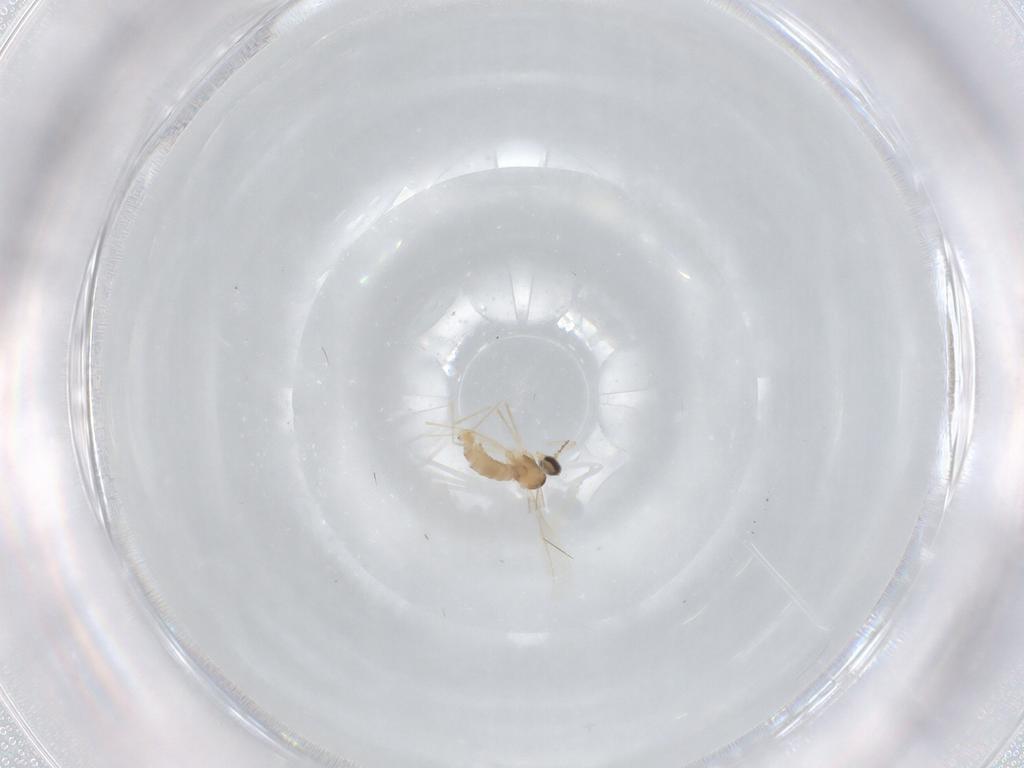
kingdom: Animalia
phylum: Arthropoda
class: Insecta
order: Diptera
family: Cecidomyiidae
